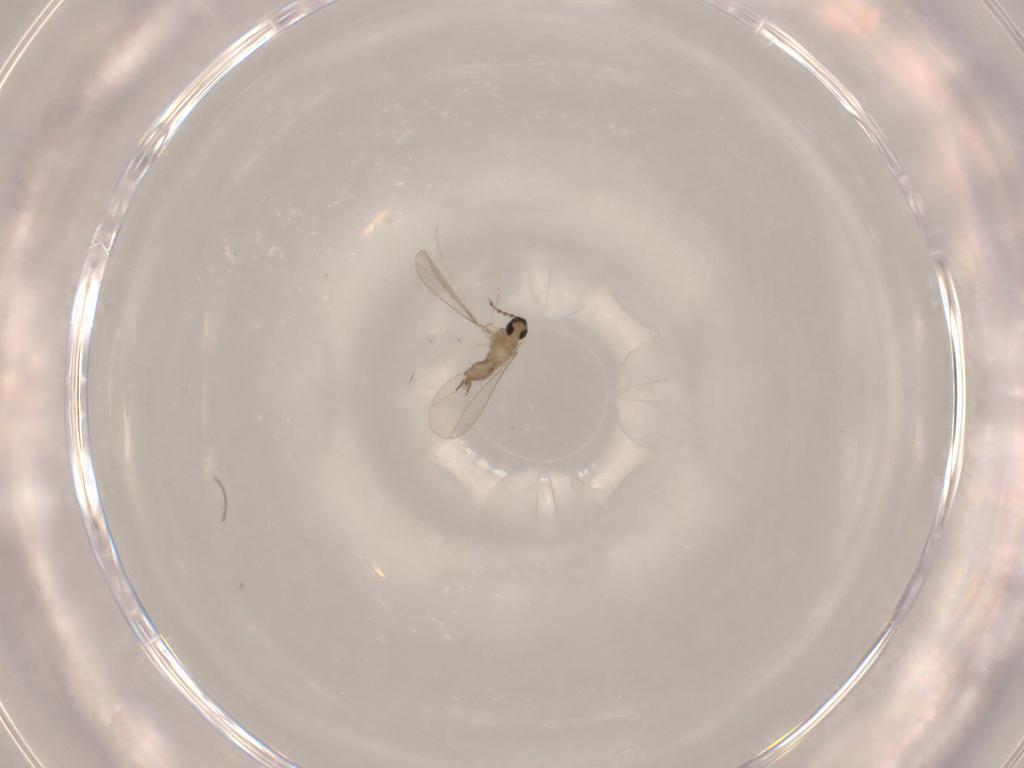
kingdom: Animalia
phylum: Arthropoda
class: Insecta
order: Diptera
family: Cecidomyiidae
